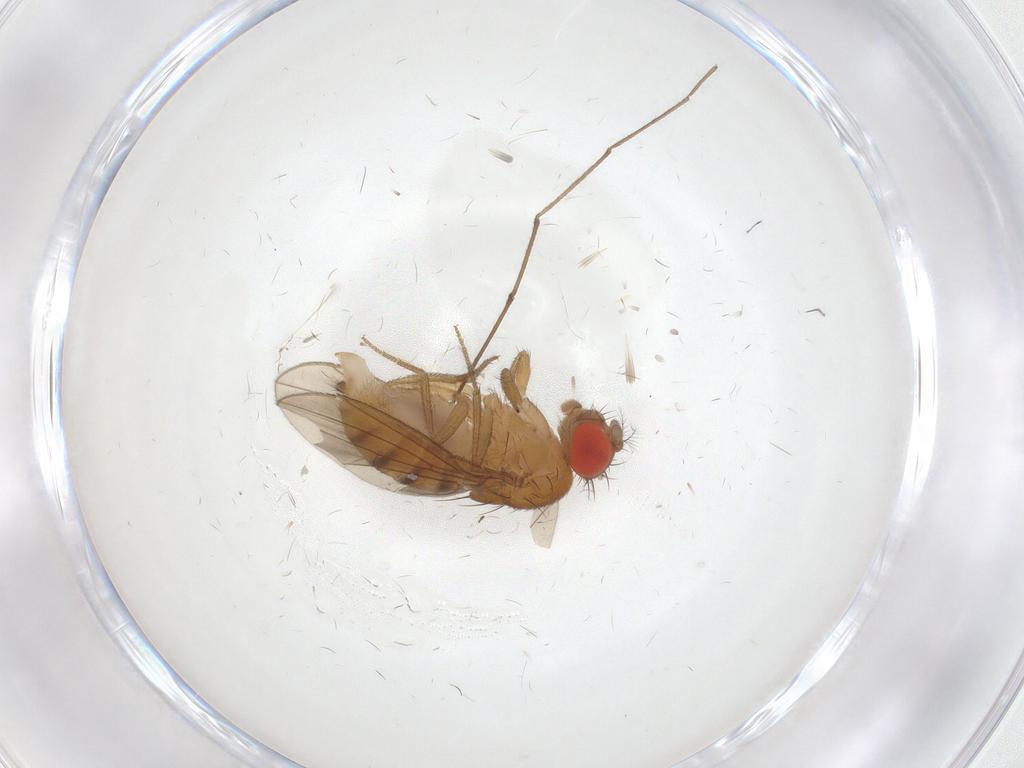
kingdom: Animalia
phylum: Arthropoda
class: Insecta
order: Diptera
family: Drosophilidae
